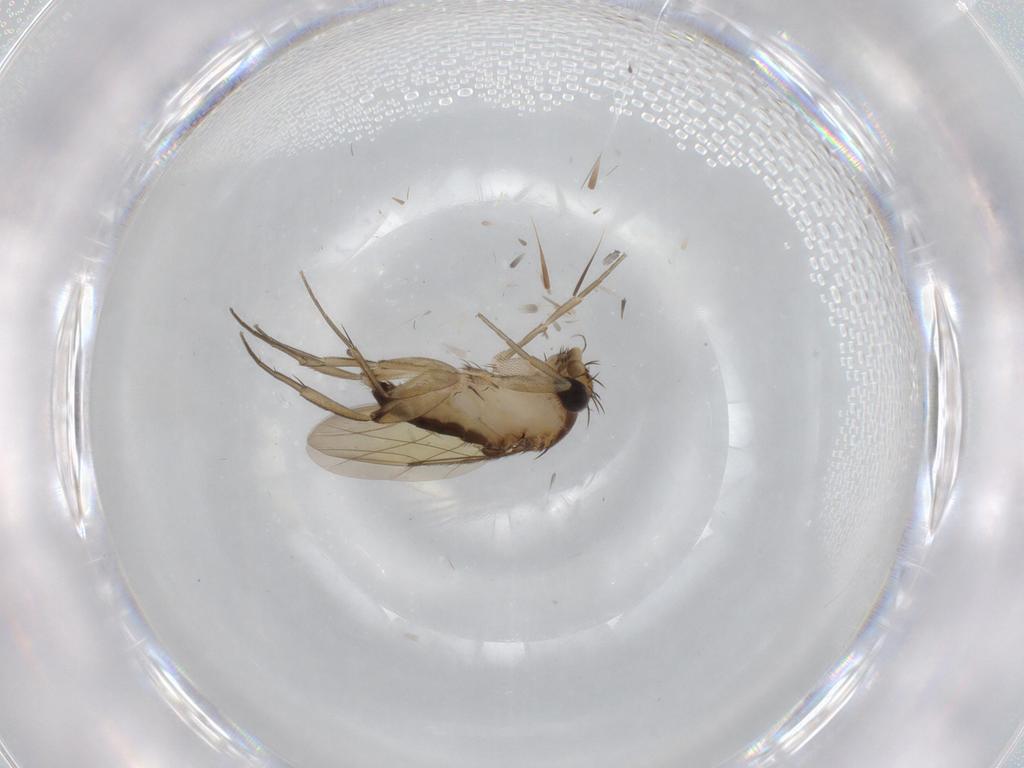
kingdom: Animalia
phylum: Arthropoda
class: Insecta
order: Diptera
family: Phoridae
